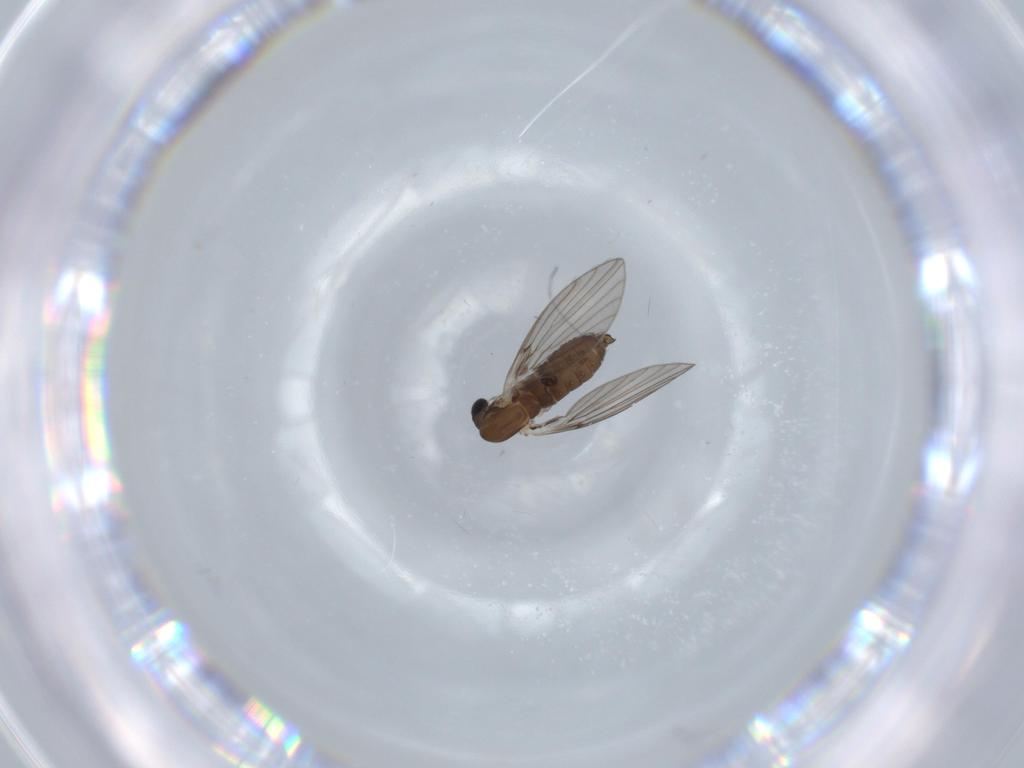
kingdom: Animalia
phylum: Arthropoda
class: Insecta
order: Diptera
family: Psychodidae
